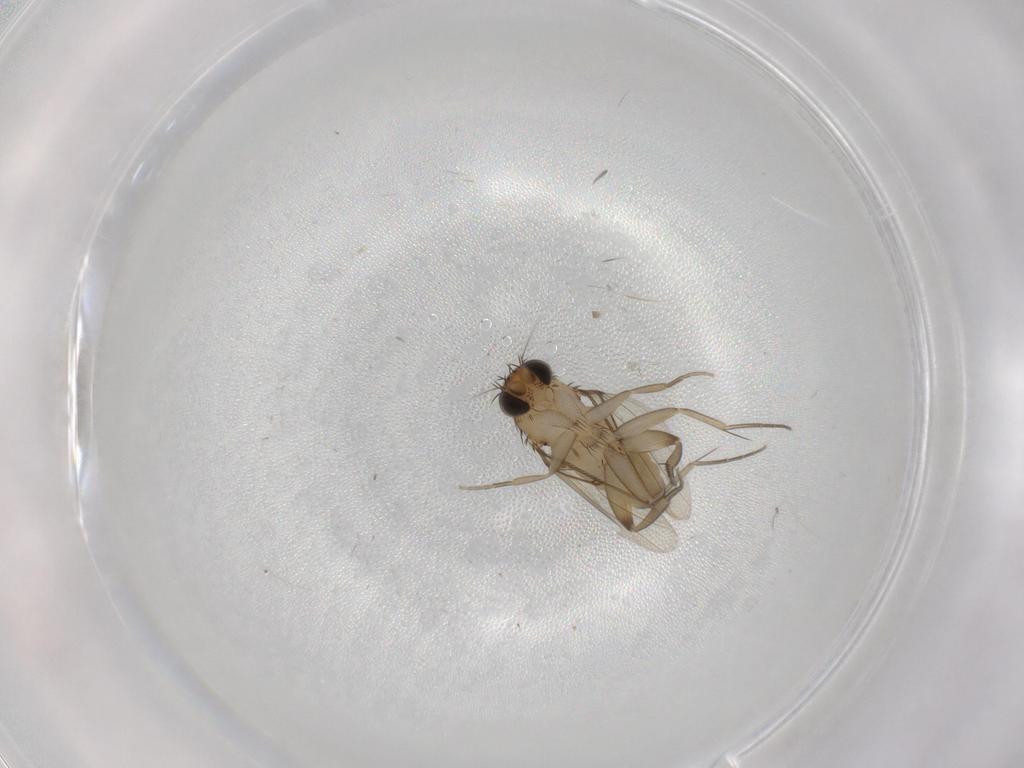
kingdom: Animalia
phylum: Arthropoda
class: Insecta
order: Diptera
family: Phoridae
